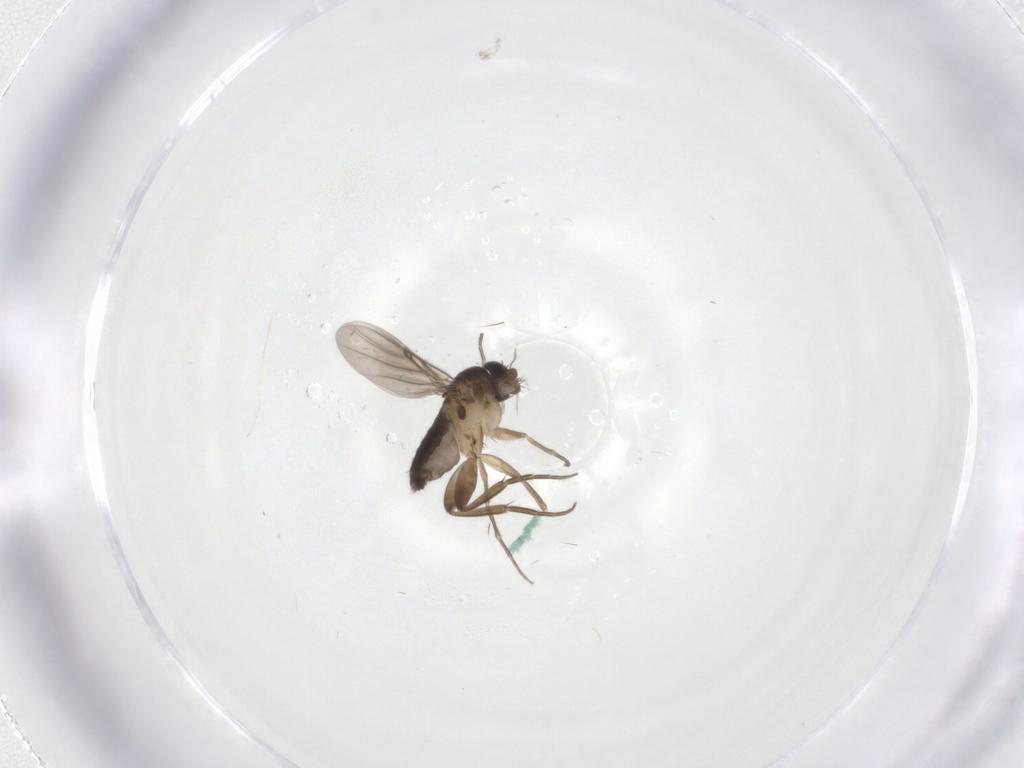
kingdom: Animalia
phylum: Arthropoda
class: Insecta
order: Diptera
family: Phoridae
